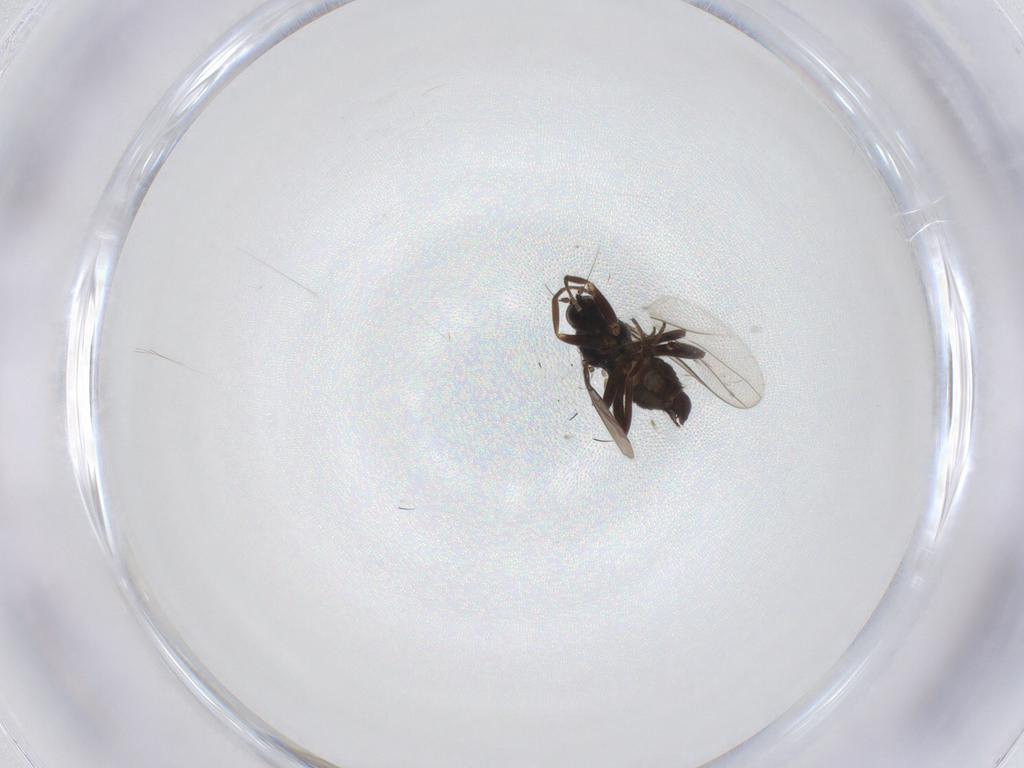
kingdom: Animalia
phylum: Arthropoda
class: Insecta
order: Diptera
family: Hybotidae
